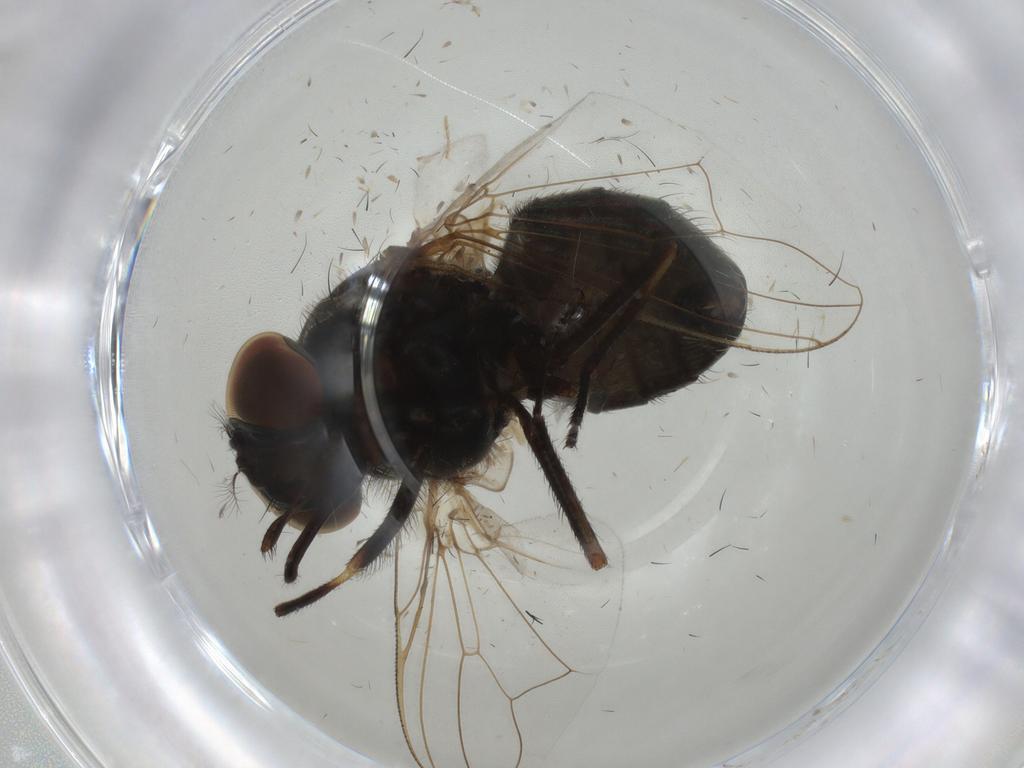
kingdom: Animalia
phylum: Arthropoda
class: Insecta
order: Diptera
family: Muscidae
